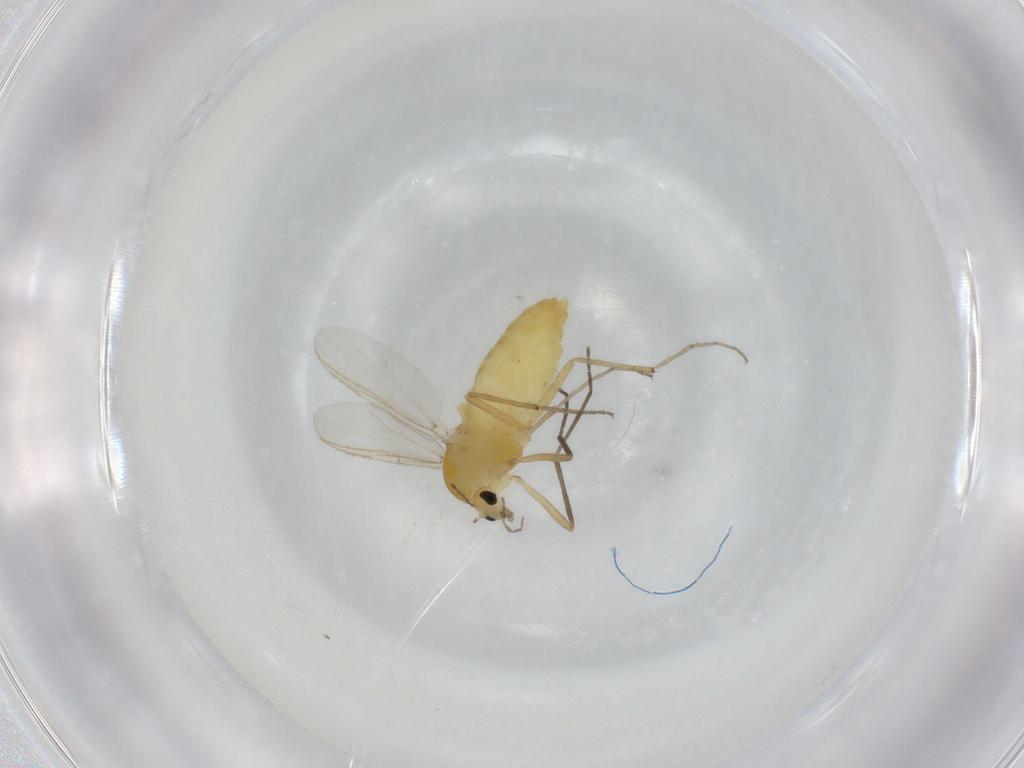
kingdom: Animalia
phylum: Arthropoda
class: Insecta
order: Diptera
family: Chironomidae
